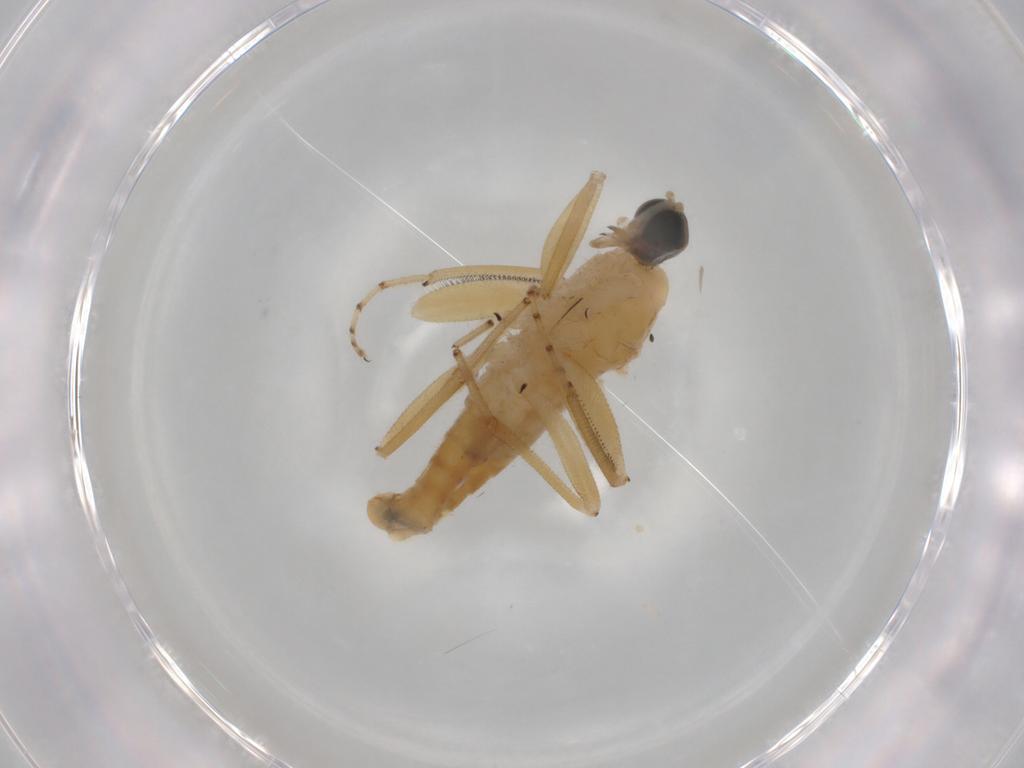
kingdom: Animalia
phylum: Arthropoda
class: Insecta
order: Diptera
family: Hybotidae
